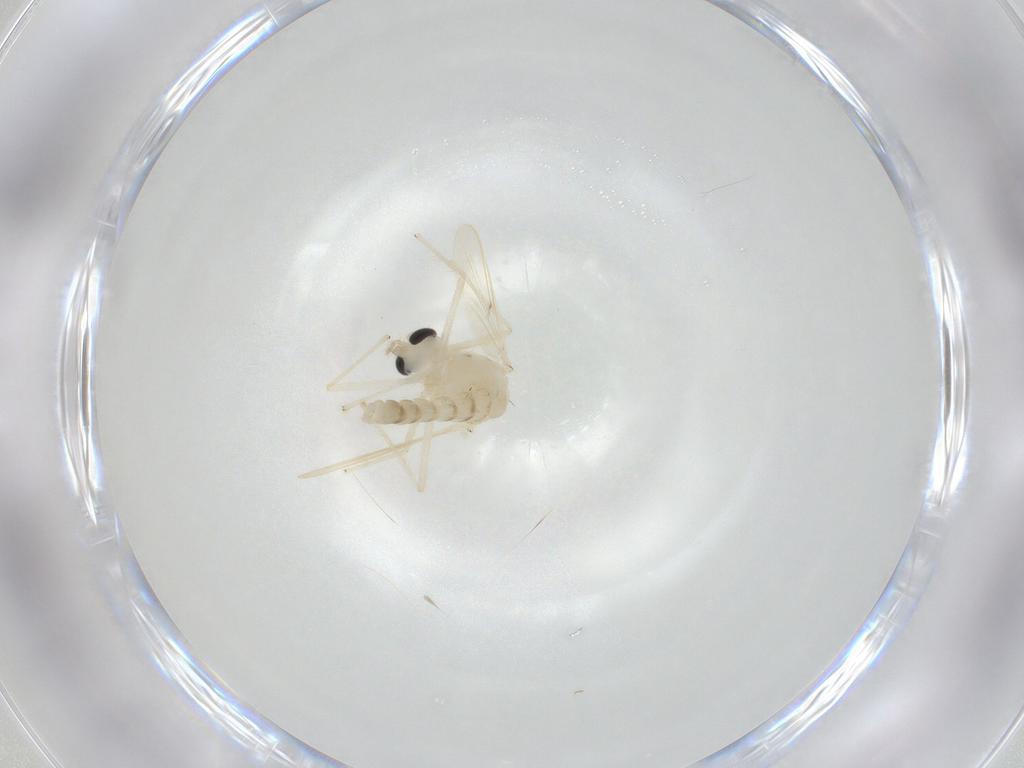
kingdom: Animalia
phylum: Arthropoda
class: Insecta
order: Diptera
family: Chironomidae
